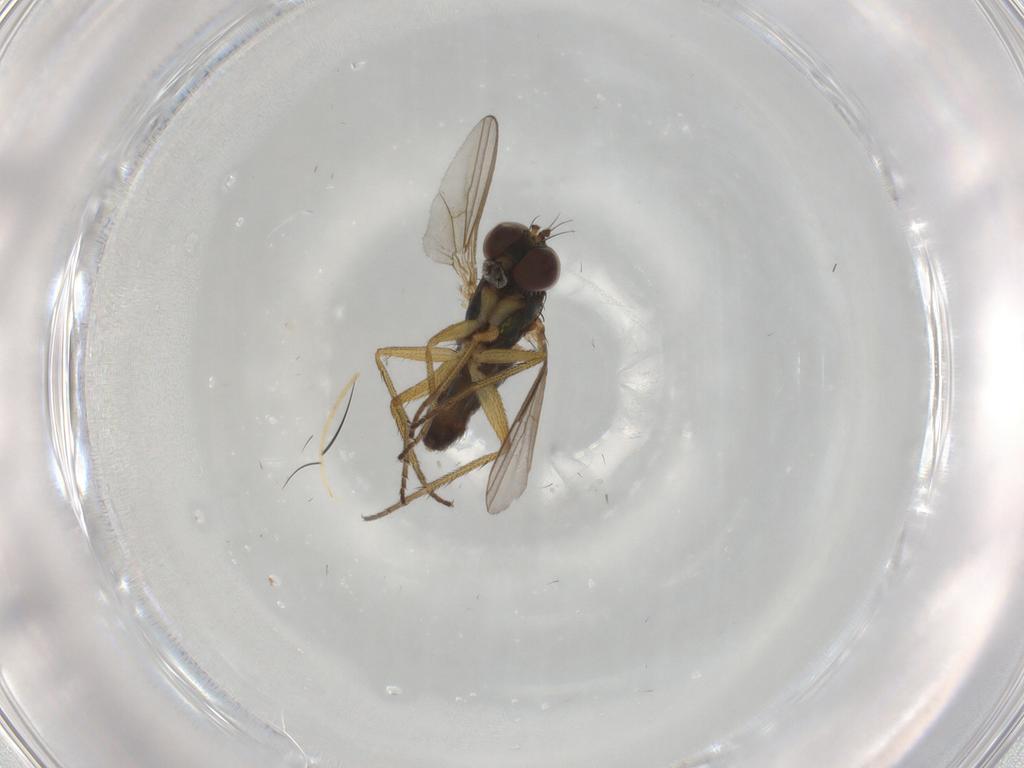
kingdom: Animalia
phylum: Arthropoda
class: Insecta
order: Diptera
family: Dolichopodidae
